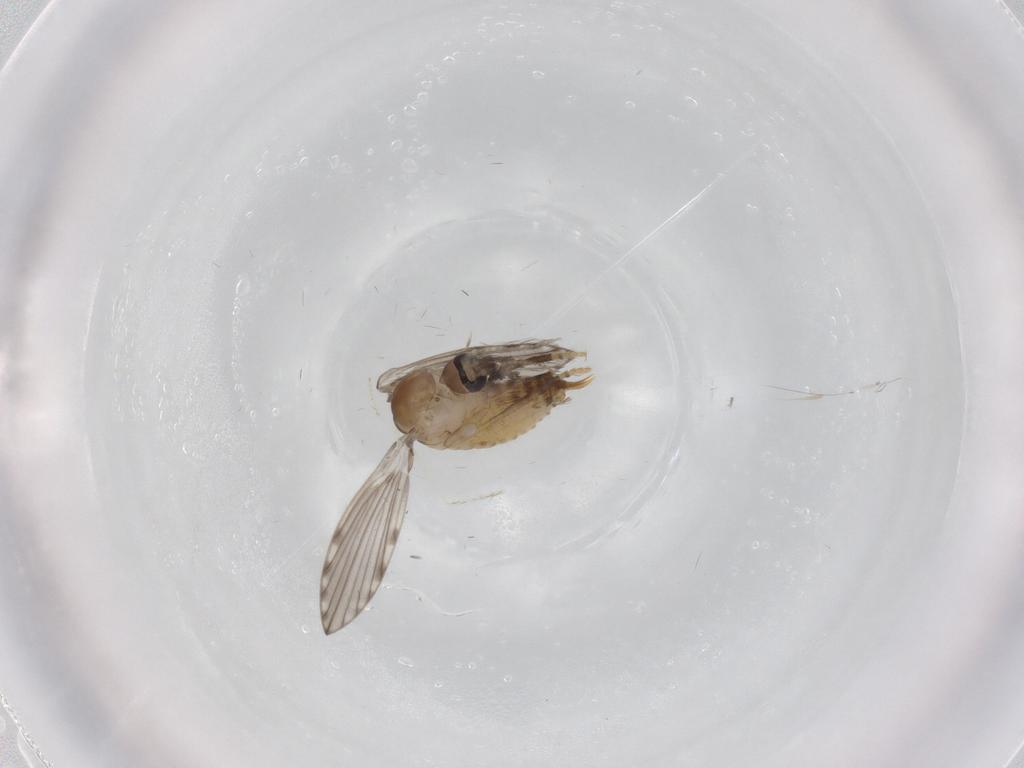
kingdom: Animalia
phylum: Arthropoda
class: Insecta
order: Diptera
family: Psychodidae
